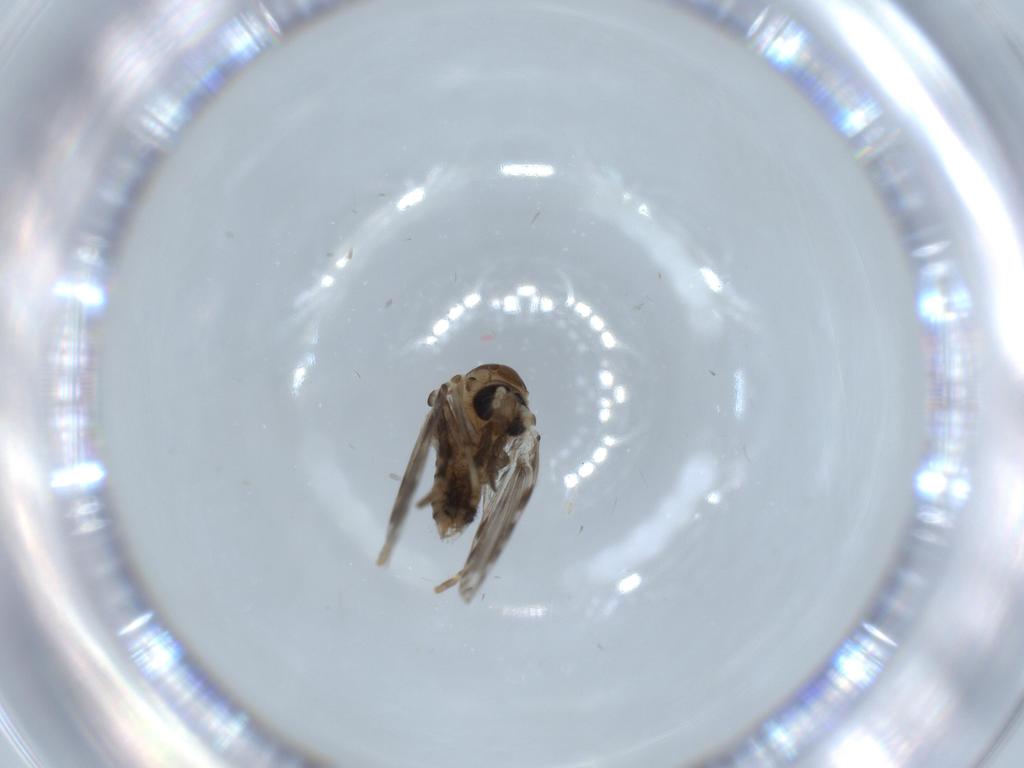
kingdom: Animalia
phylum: Arthropoda
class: Insecta
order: Diptera
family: Psychodidae
